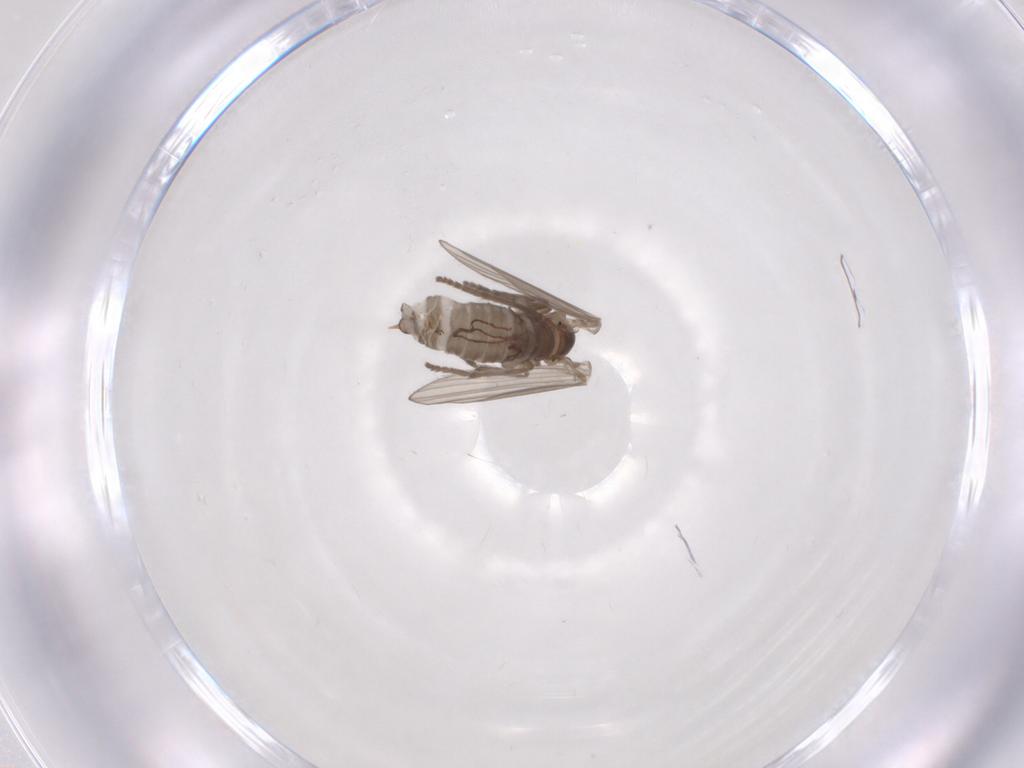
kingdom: Animalia
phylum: Arthropoda
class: Insecta
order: Diptera
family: Psychodidae
